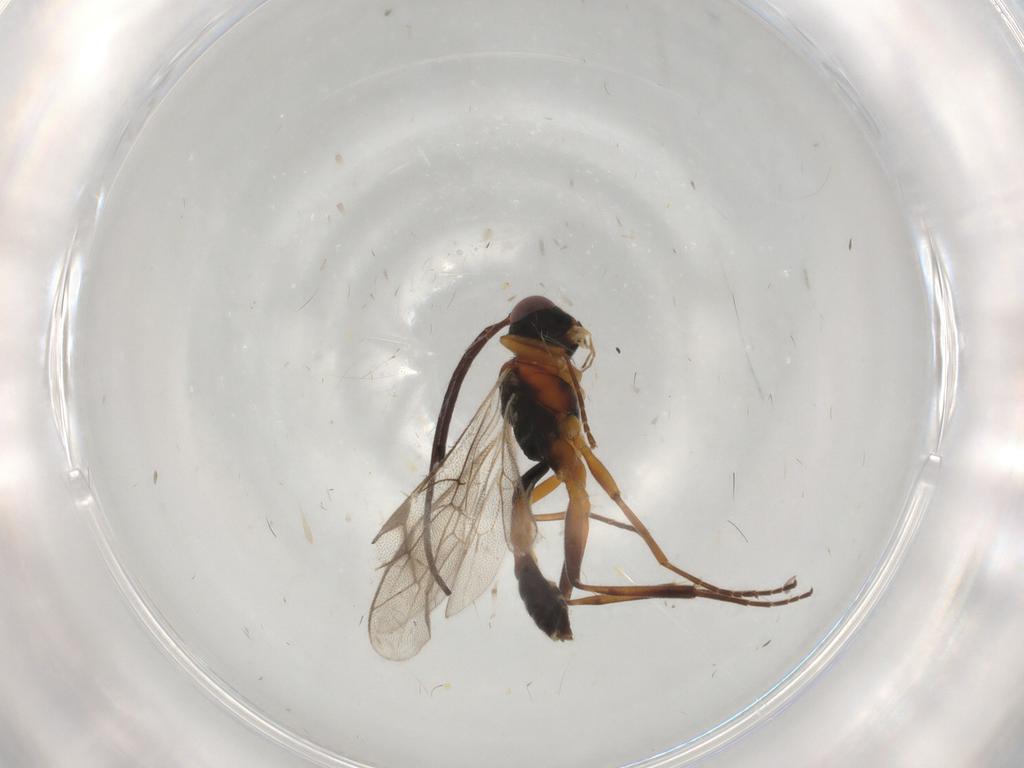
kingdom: Animalia
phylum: Arthropoda
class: Insecta
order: Hymenoptera
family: Ichneumonidae
